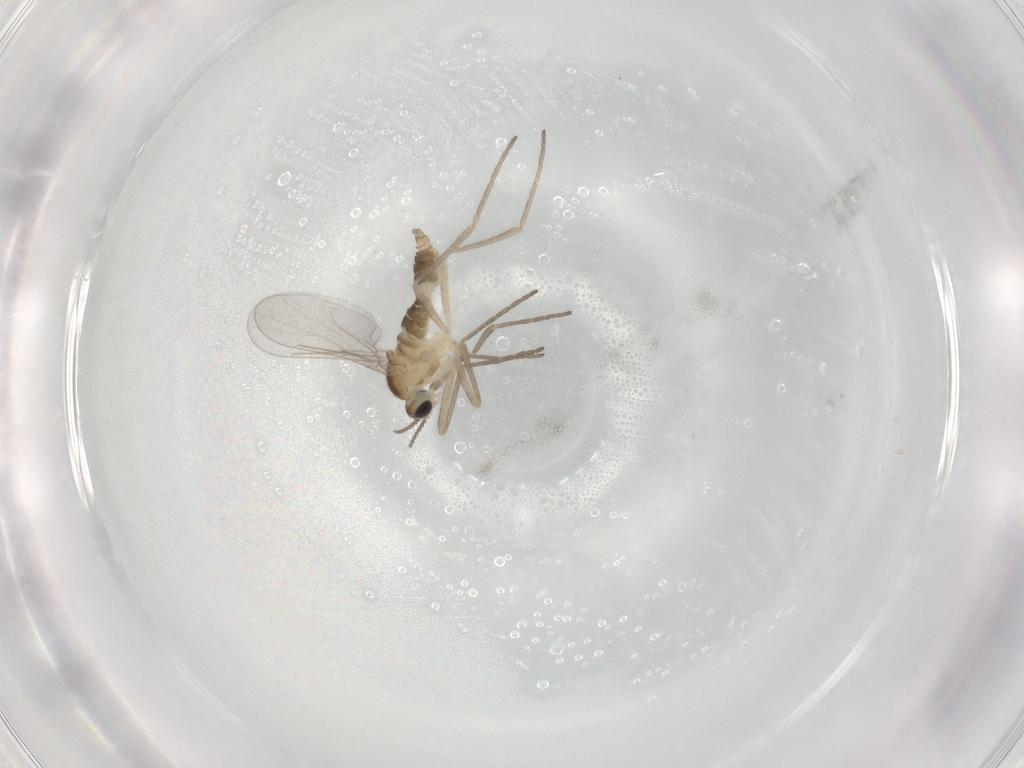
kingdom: Animalia
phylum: Arthropoda
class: Insecta
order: Diptera
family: Cecidomyiidae
